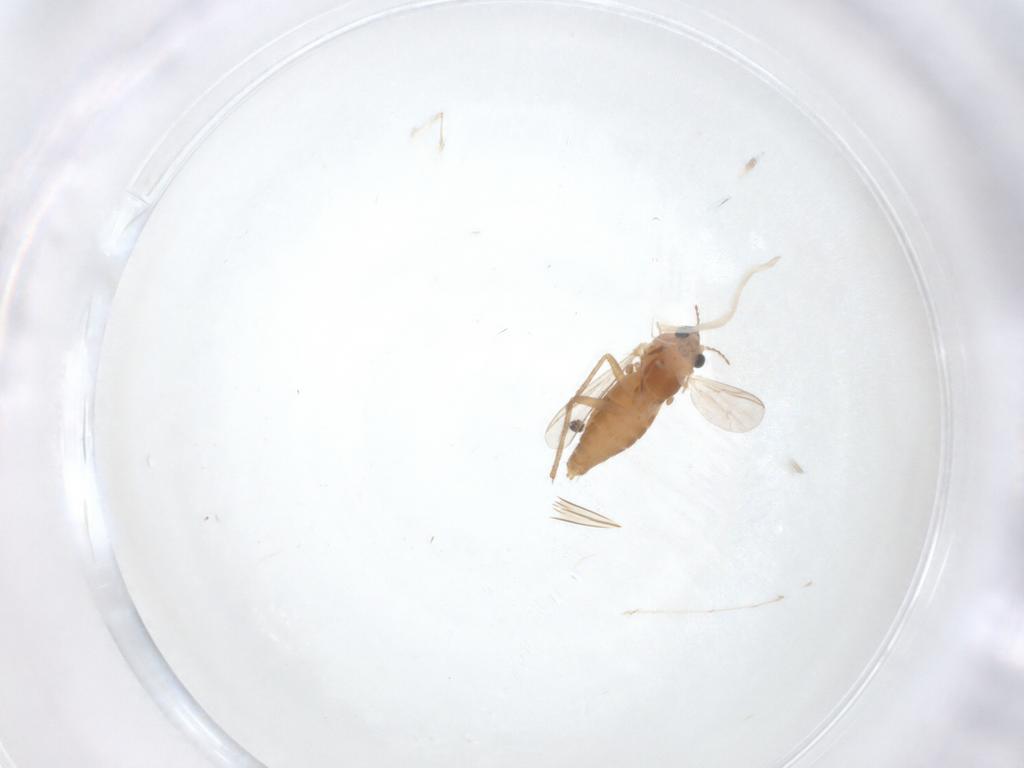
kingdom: Animalia
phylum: Arthropoda
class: Insecta
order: Diptera
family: Chironomidae
